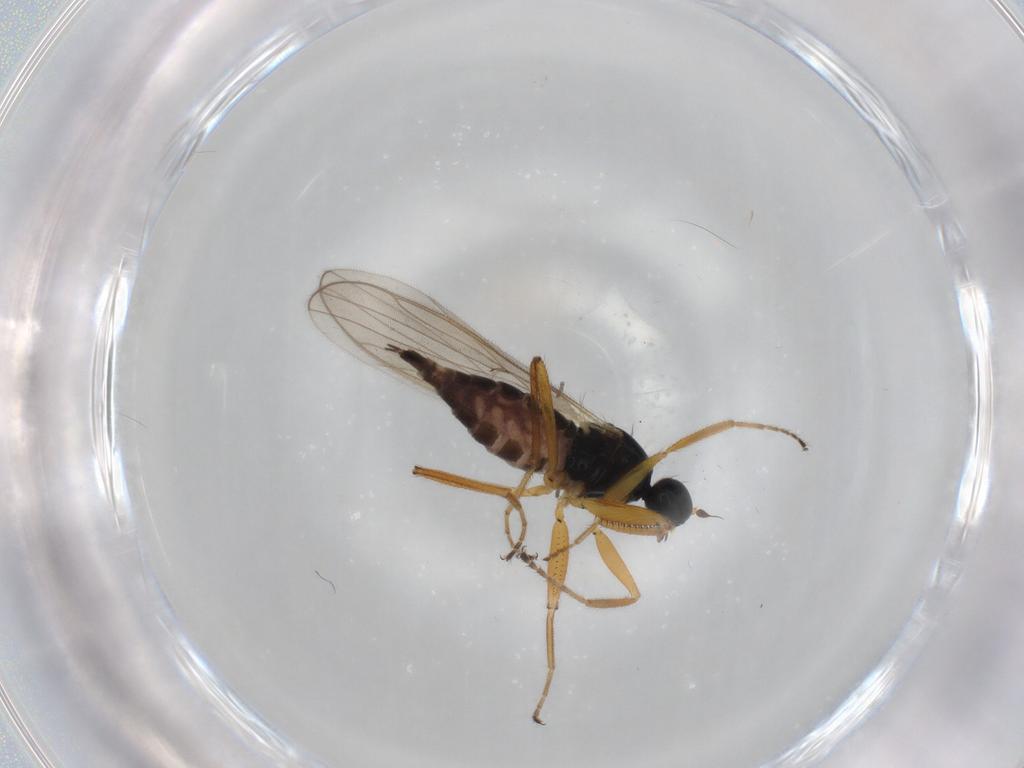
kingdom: Animalia
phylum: Arthropoda
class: Insecta
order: Diptera
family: Hybotidae
